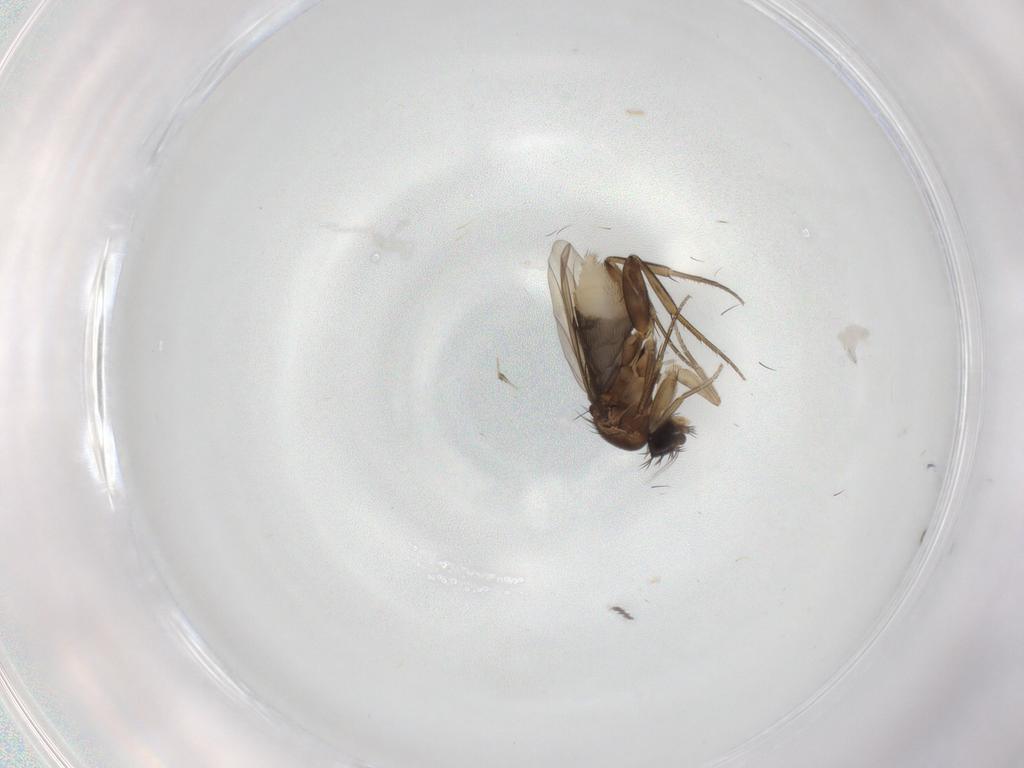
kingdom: Animalia
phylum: Arthropoda
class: Insecta
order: Diptera
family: Phoridae
